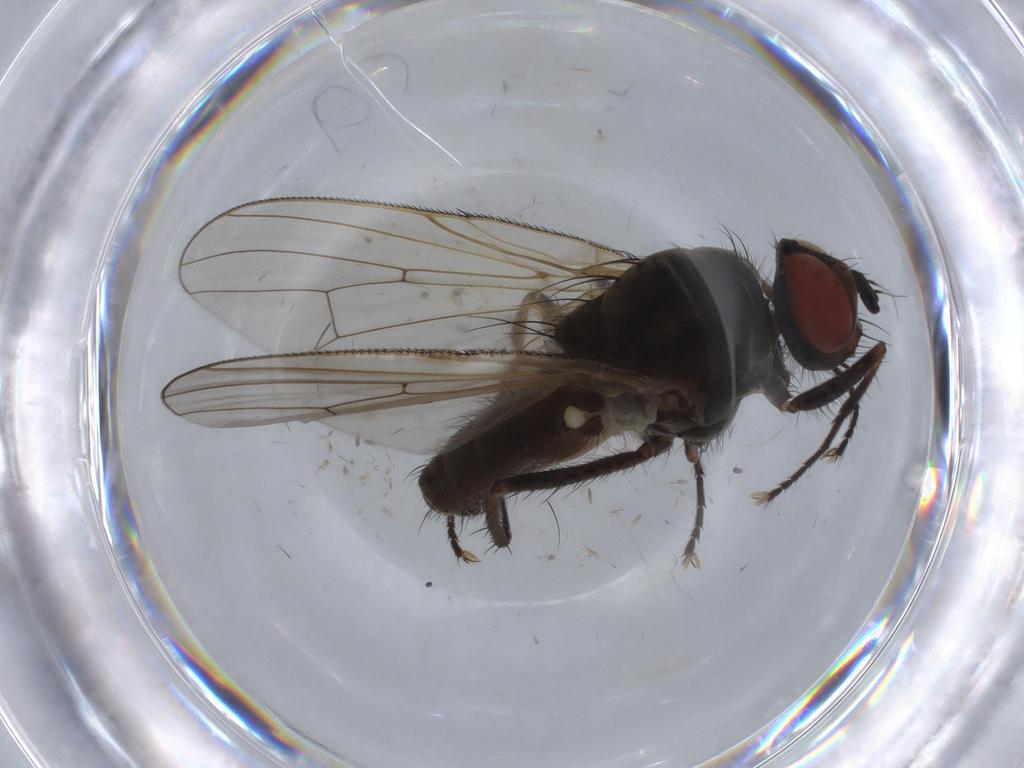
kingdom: Animalia
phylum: Arthropoda
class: Insecta
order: Diptera
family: Anthomyiidae
